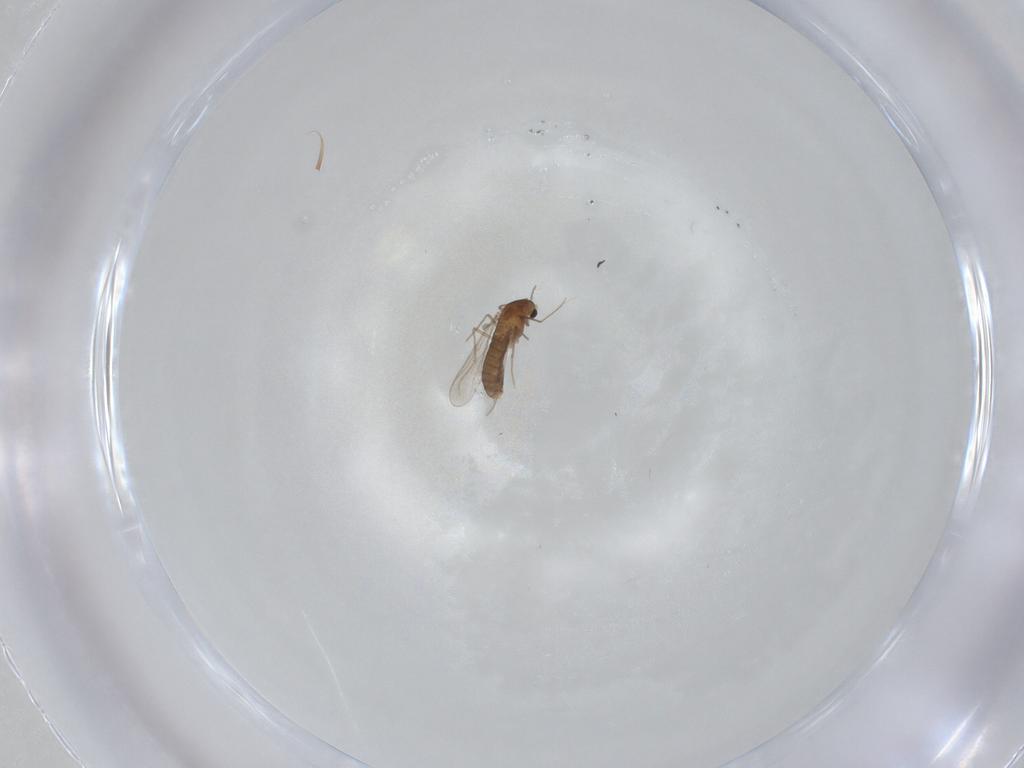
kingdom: Animalia
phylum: Arthropoda
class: Insecta
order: Diptera
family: Sphaeroceridae
